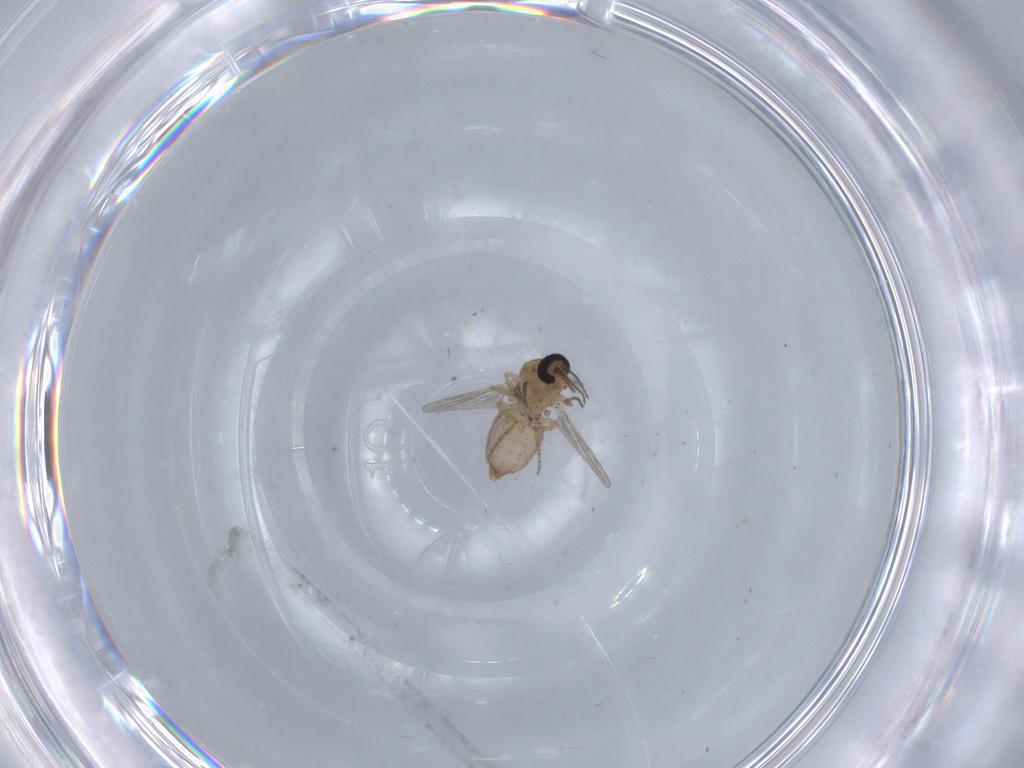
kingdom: Animalia
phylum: Arthropoda
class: Insecta
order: Diptera
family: Ceratopogonidae
